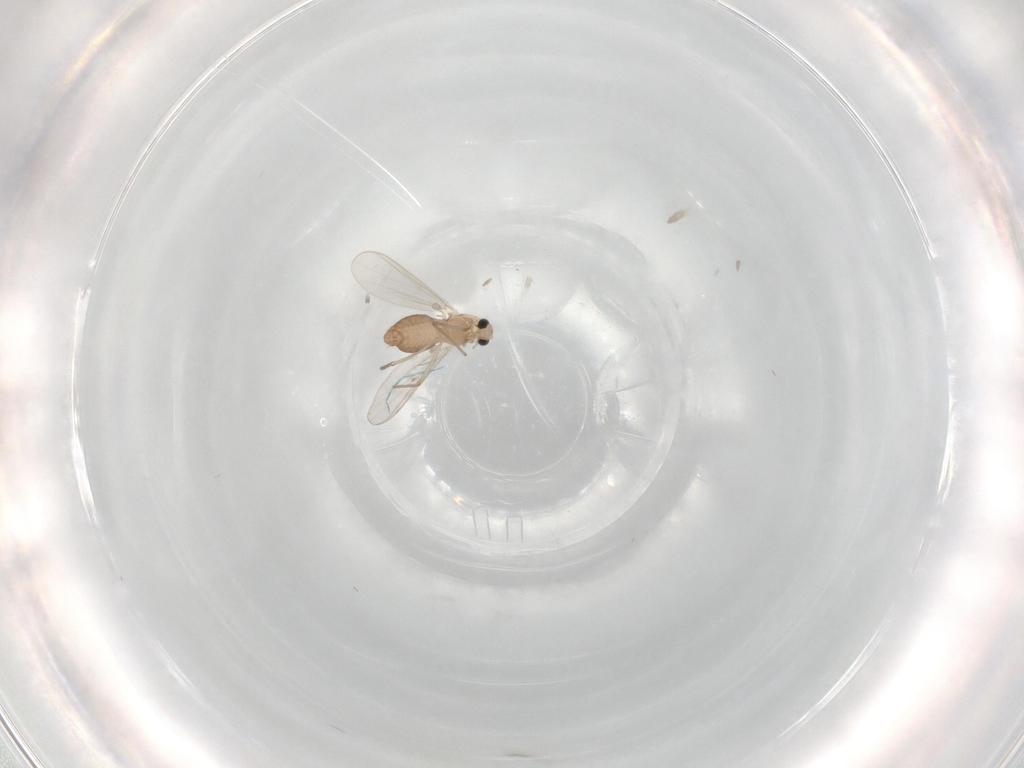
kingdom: Animalia
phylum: Arthropoda
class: Insecta
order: Diptera
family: Chironomidae
